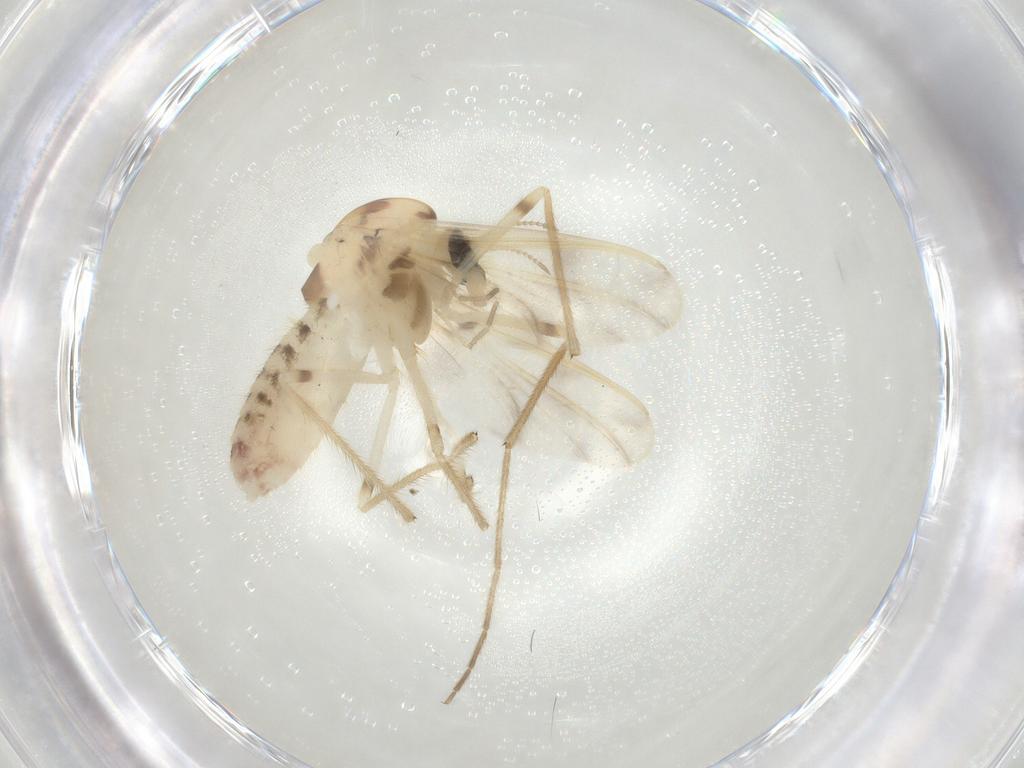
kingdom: Animalia
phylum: Arthropoda
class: Insecta
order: Diptera
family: Chironomidae
